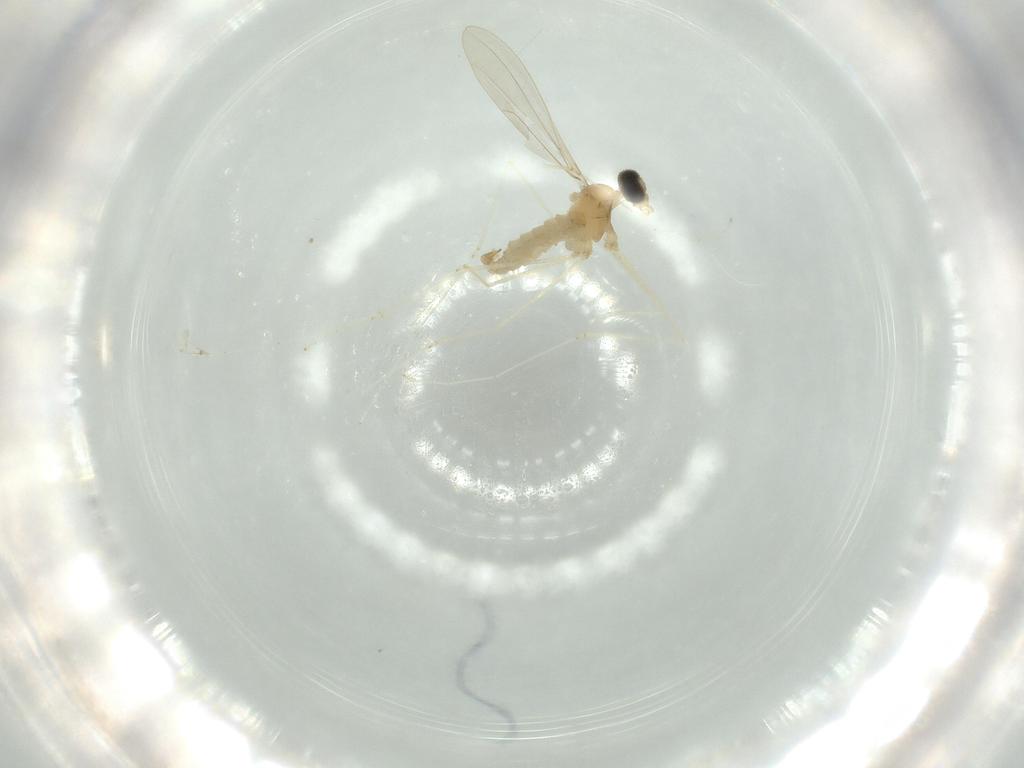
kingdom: Animalia
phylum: Arthropoda
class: Insecta
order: Diptera
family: Cecidomyiidae
